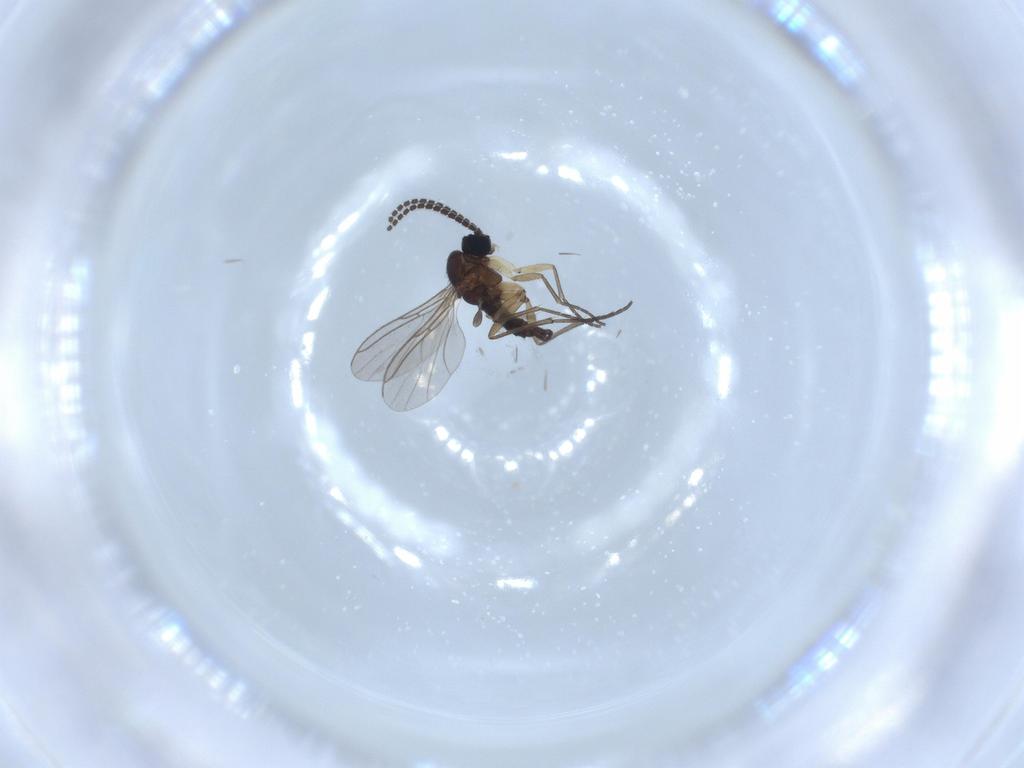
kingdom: Animalia
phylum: Arthropoda
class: Insecta
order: Diptera
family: Sciaridae
